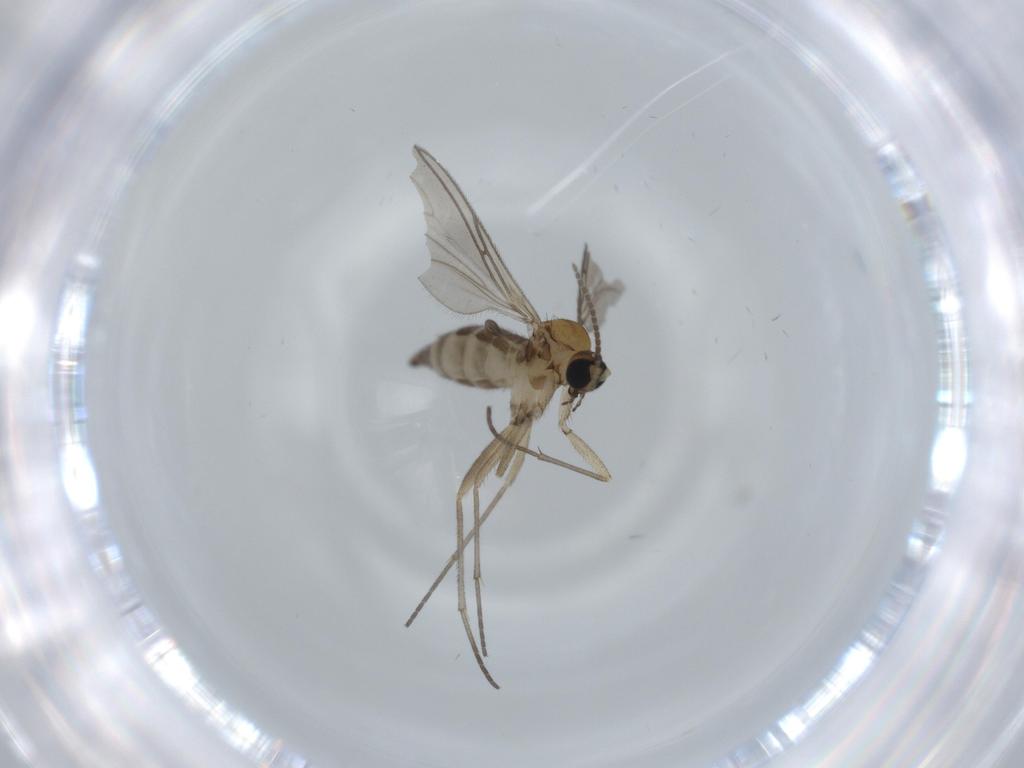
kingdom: Animalia
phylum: Arthropoda
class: Insecta
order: Diptera
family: Sciaridae
